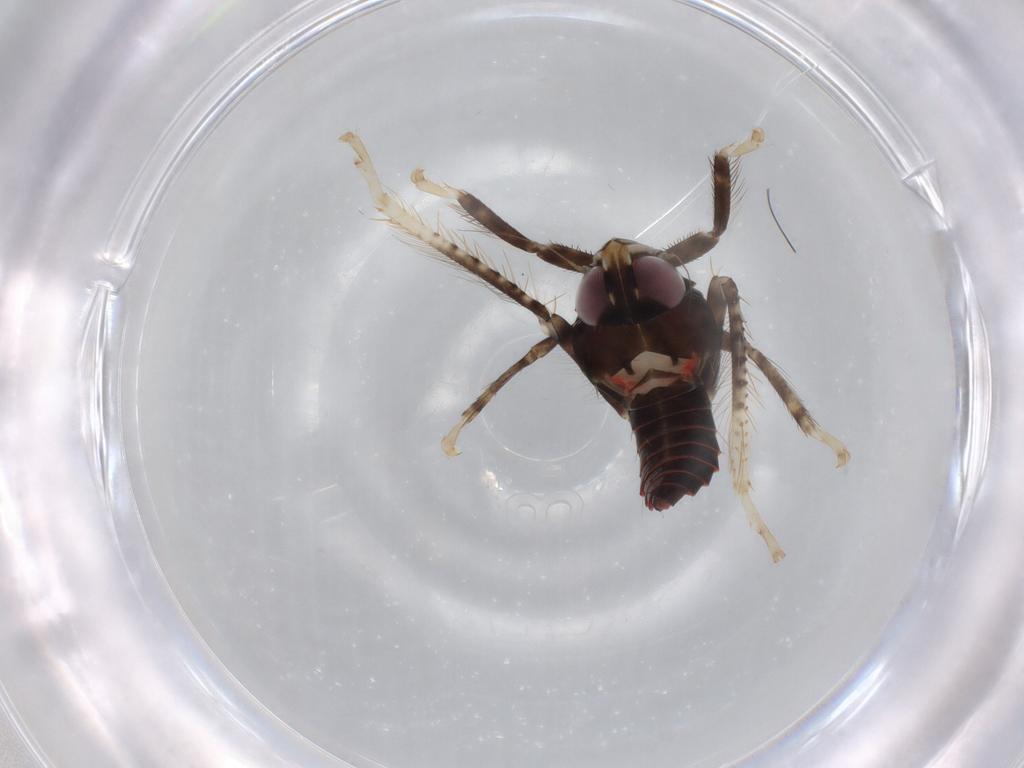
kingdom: Animalia
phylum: Arthropoda
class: Insecta
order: Hemiptera
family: Cicadellidae
